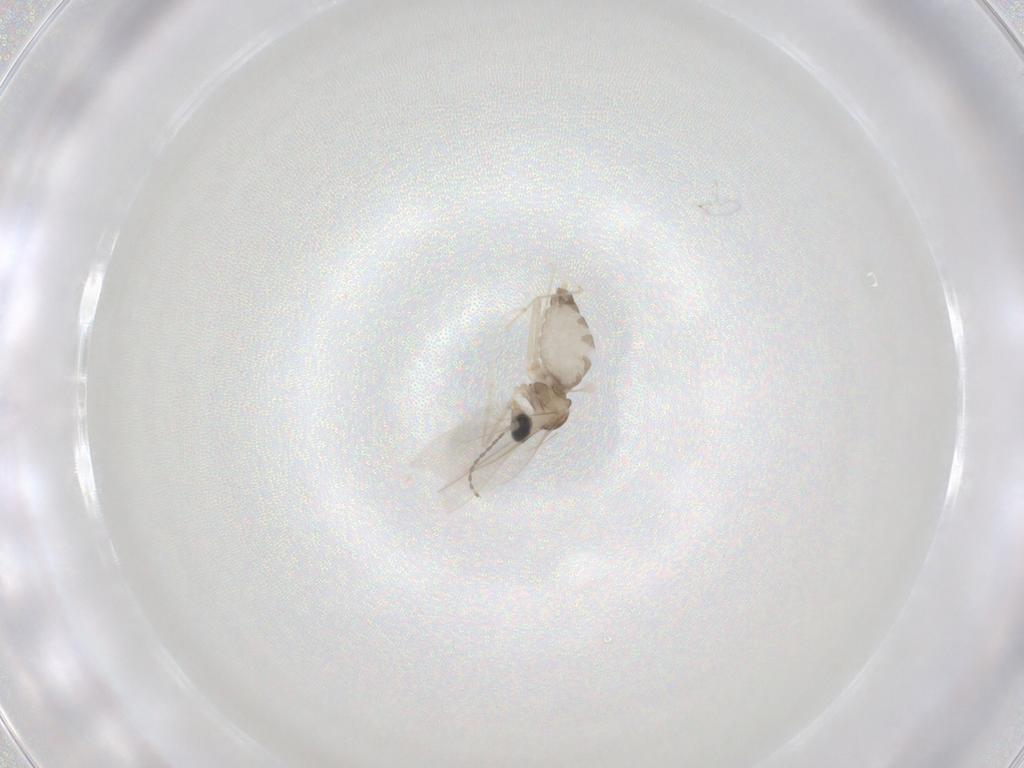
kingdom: Animalia
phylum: Arthropoda
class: Insecta
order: Diptera
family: Cecidomyiidae
